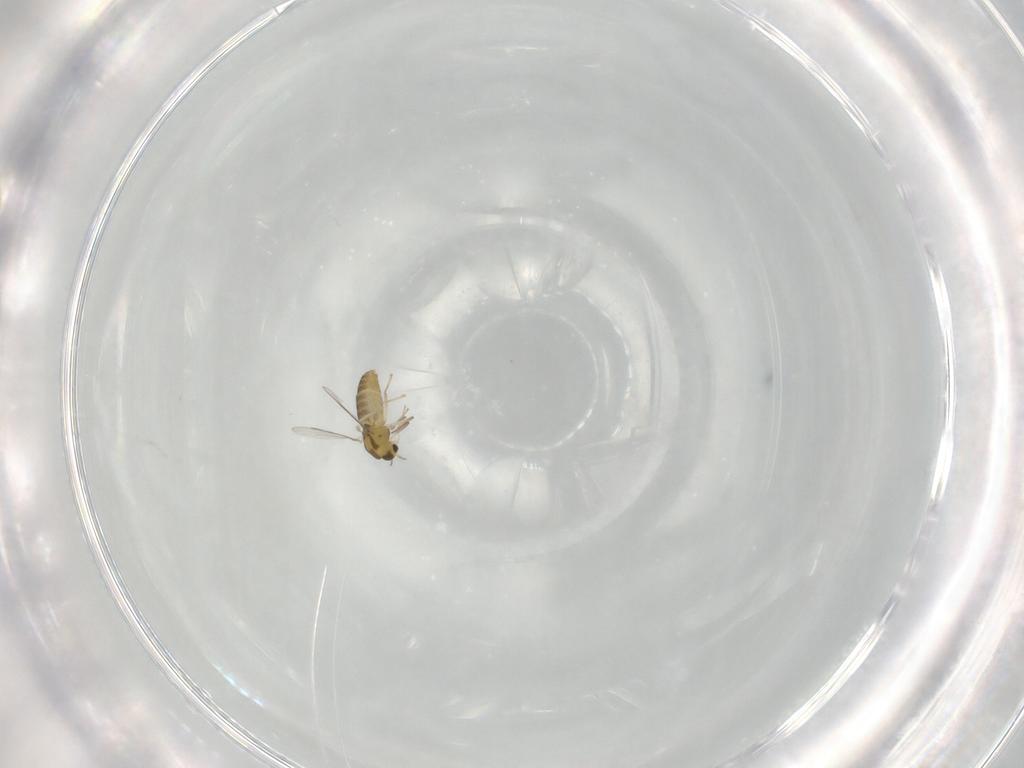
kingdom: Animalia
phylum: Arthropoda
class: Insecta
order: Diptera
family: Chironomidae
